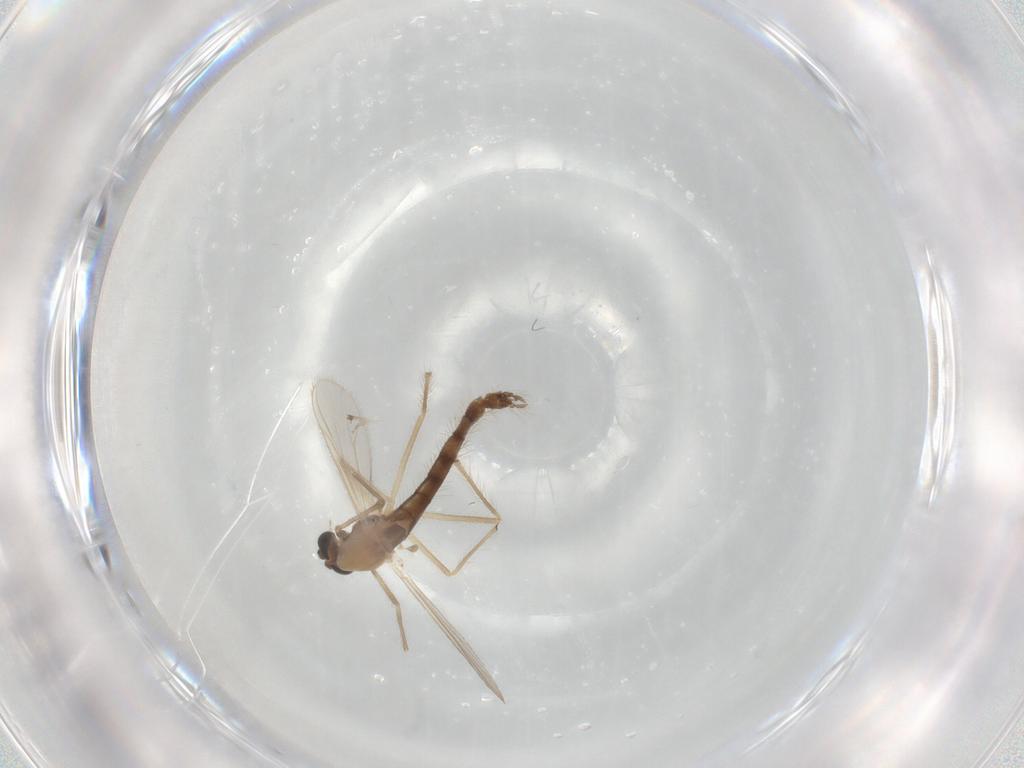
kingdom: Animalia
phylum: Arthropoda
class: Insecta
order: Diptera
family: Chironomidae
